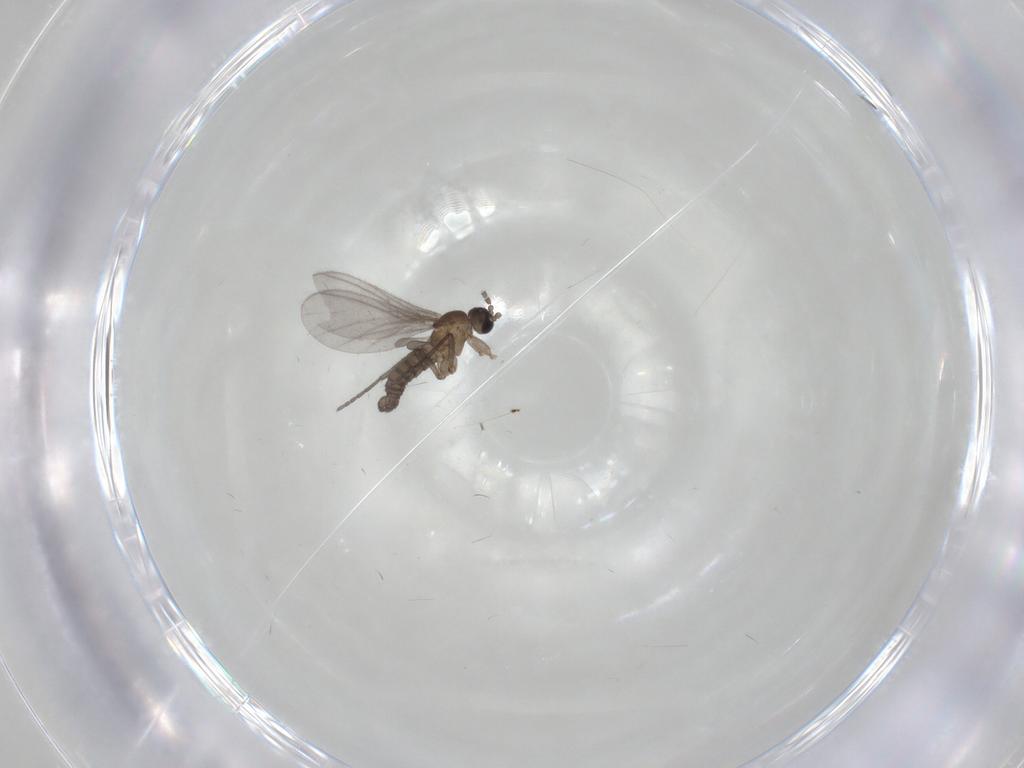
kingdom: Animalia
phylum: Arthropoda
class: Insecta
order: Diptera
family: Sciaridae
